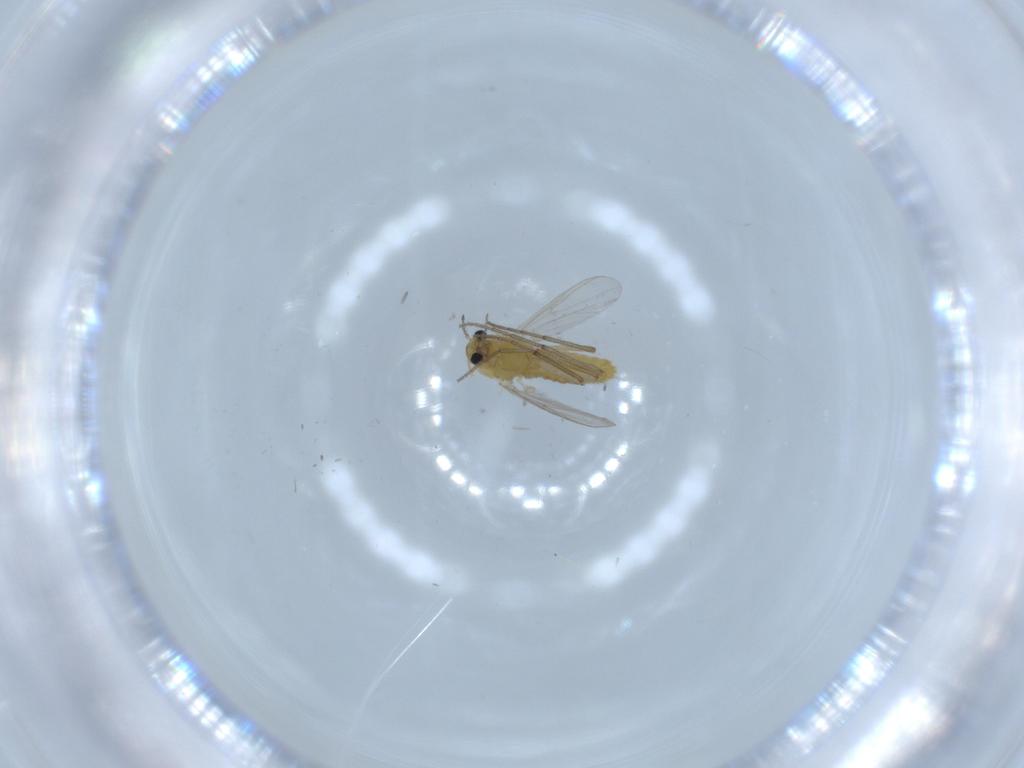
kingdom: Animalia
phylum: Arthropoda
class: Insecta
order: Diptera
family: Chironomidae
